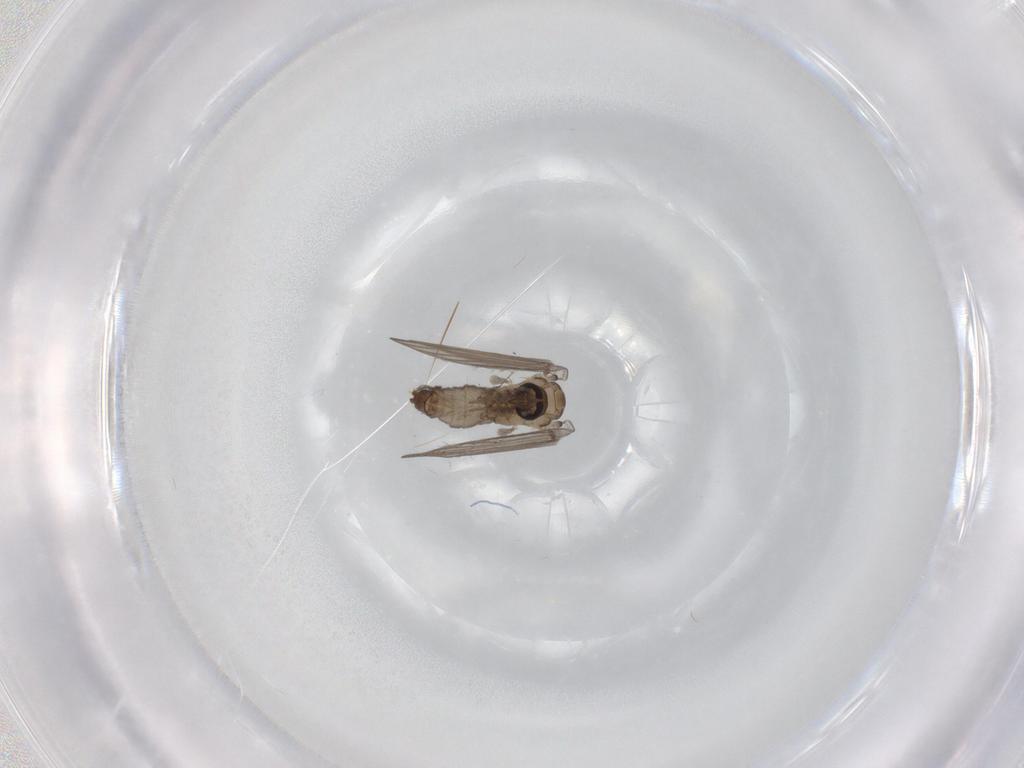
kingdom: Animalia
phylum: Arthropoda
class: Insecta
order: Diptera
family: Psychodidae
